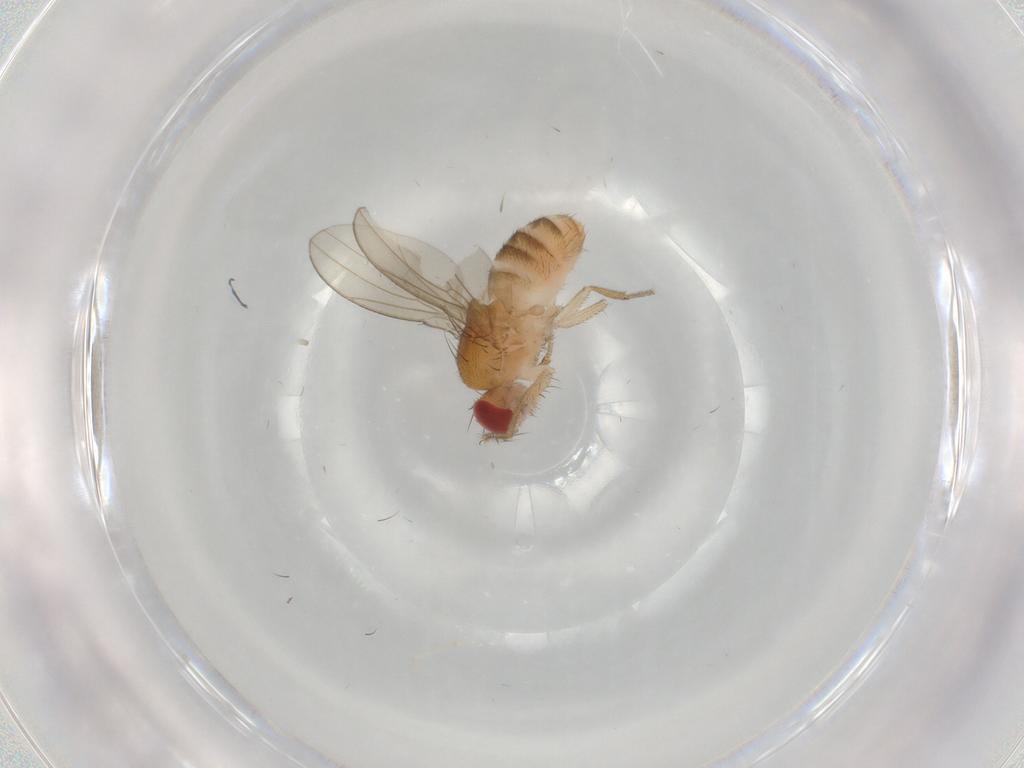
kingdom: Animalia
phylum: Arthropoda
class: Insecta
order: Diptera
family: Drosophilidae
